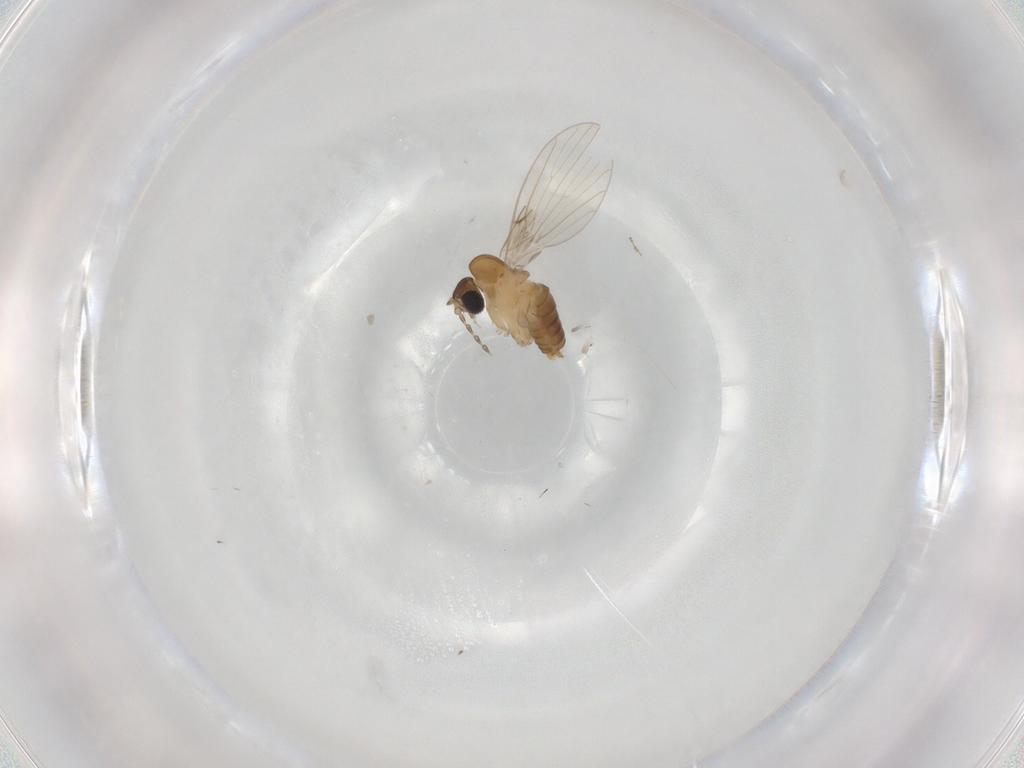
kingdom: Animalia
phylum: Arthropoda
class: Insecta
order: Diptera
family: Psychodidae
